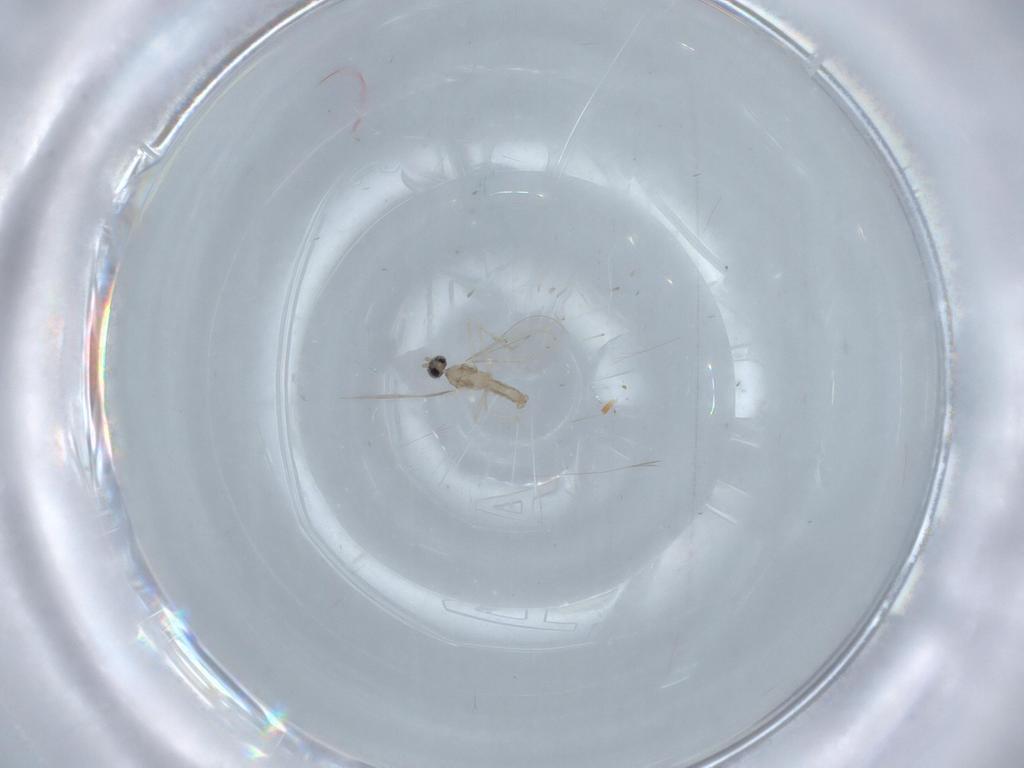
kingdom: Animalia
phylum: Arthropoda
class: Insecta
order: Diptera
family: Cecidomyiidae
